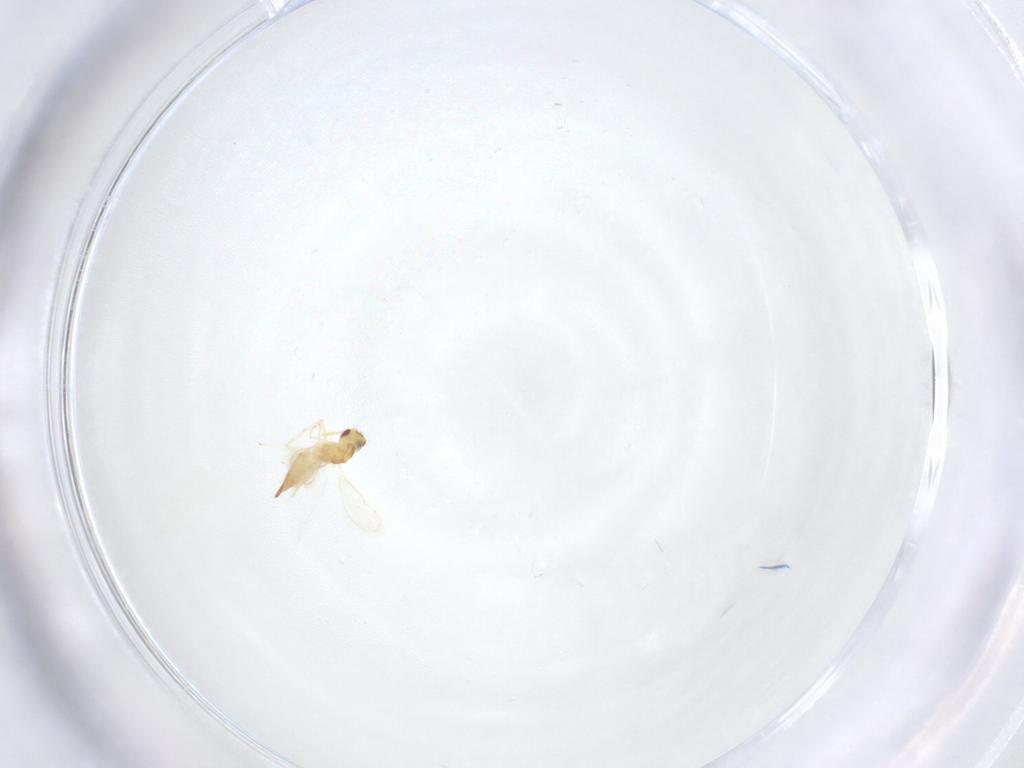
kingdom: Animalia
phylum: Arthropoda
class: Insecta
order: Hymenoptera
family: Eulophidae
